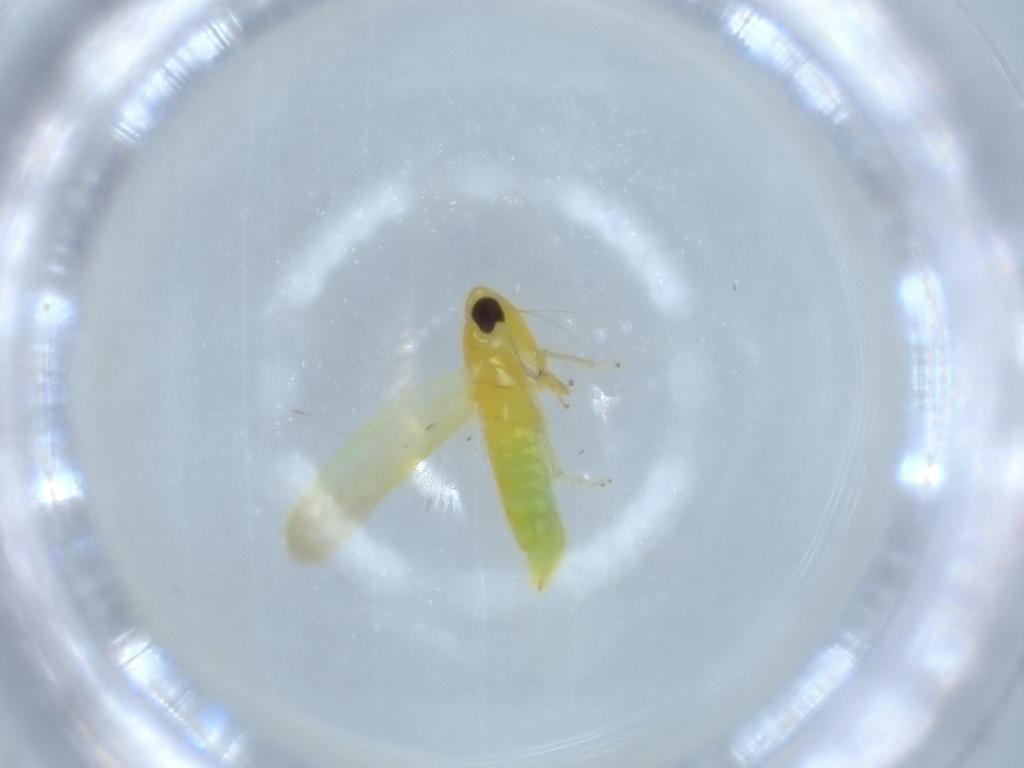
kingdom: Animalia
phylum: Arthropoda
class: Insecta
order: Hemiptera
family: Cicadellidae
